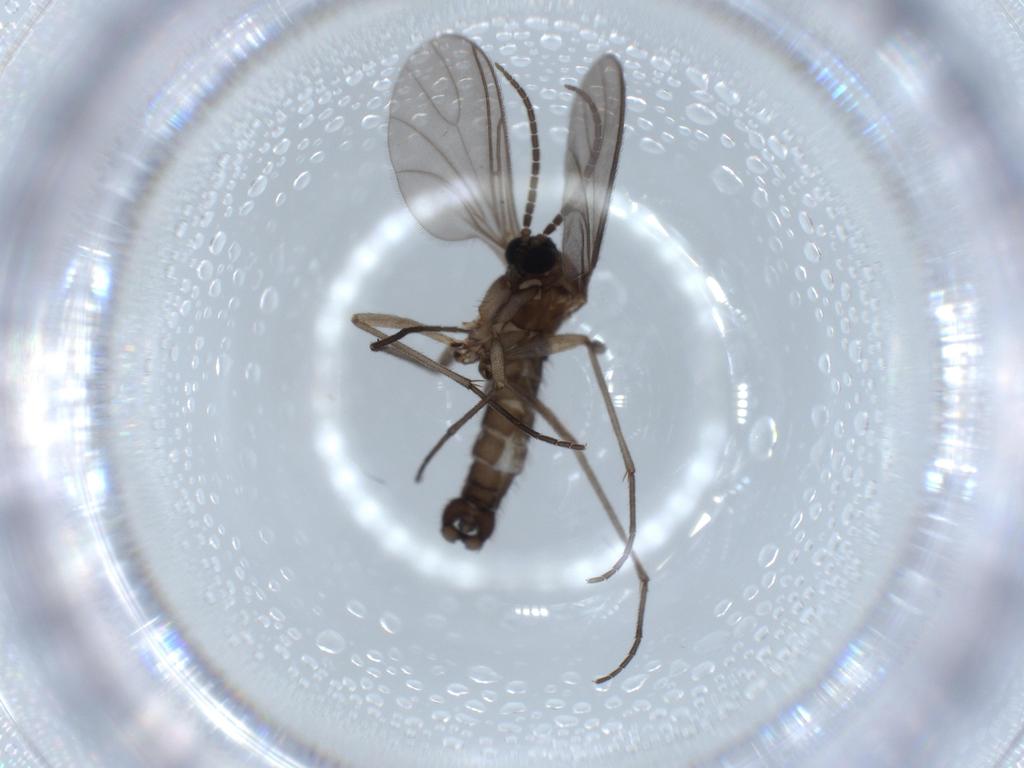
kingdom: Animalia
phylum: Arthropoda
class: Insecta
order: Diptera
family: Sciaridae
